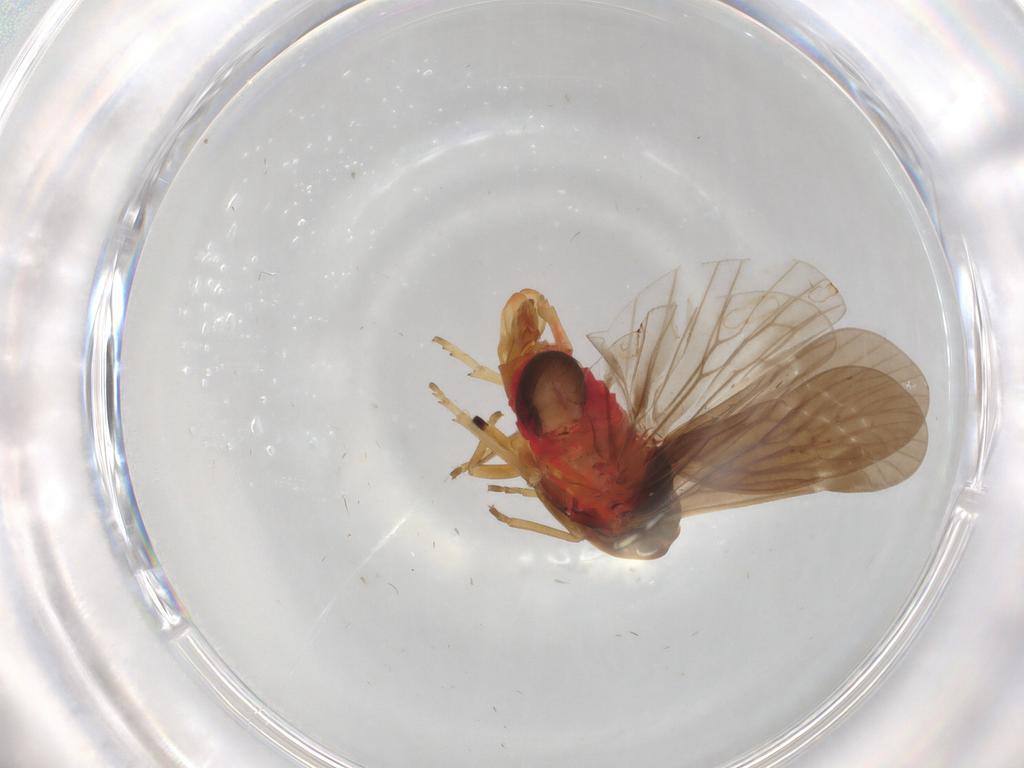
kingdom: Animalia
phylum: Arthropoda
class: Insecta
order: Hemiptera
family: Derbidae
